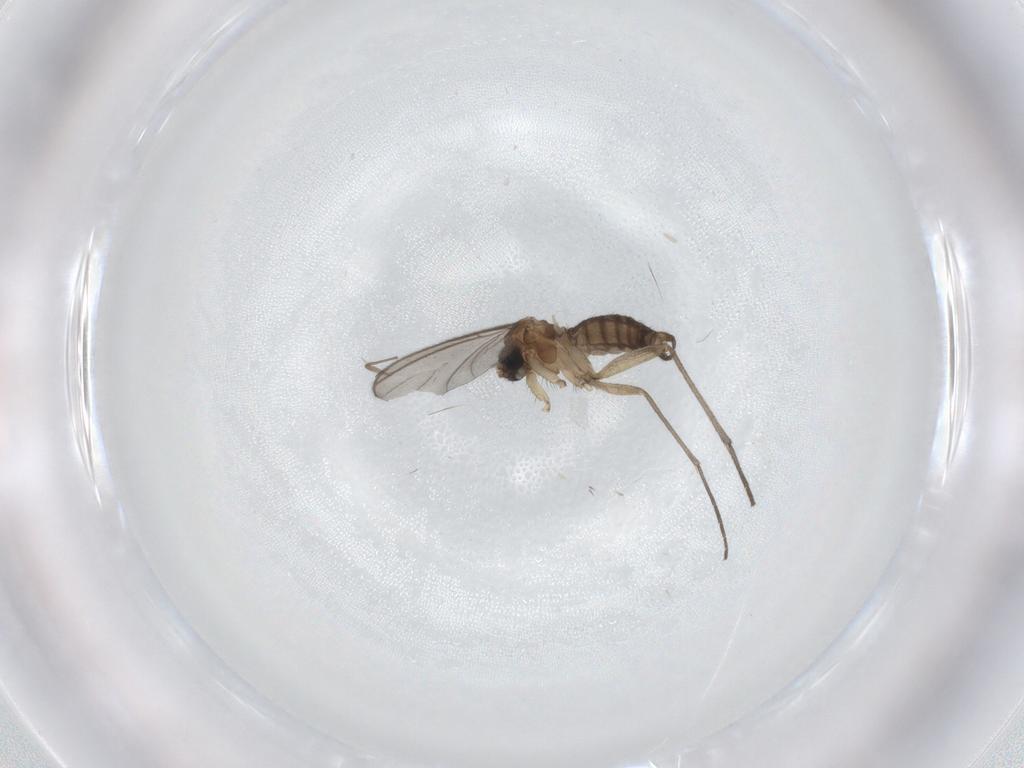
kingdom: Animalia
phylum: Arthropoda
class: Insecta
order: Diptera
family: Sciaridae
